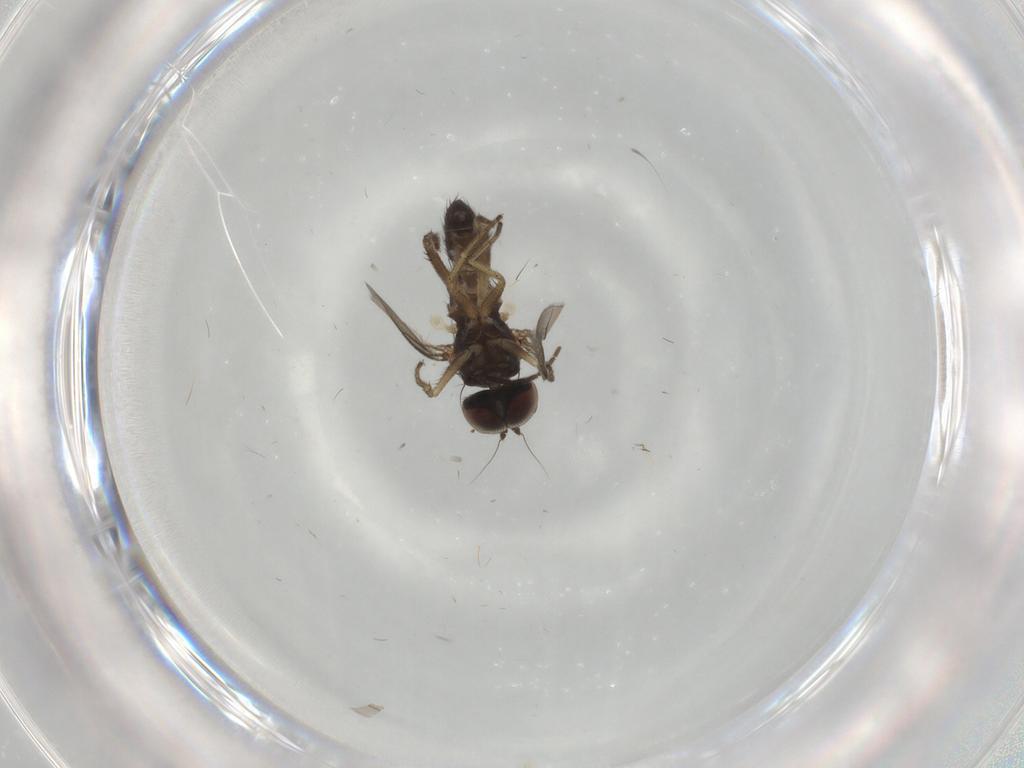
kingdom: Animalia
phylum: Arthropoda
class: Insecta
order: Diptera
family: Dolichopodidae
